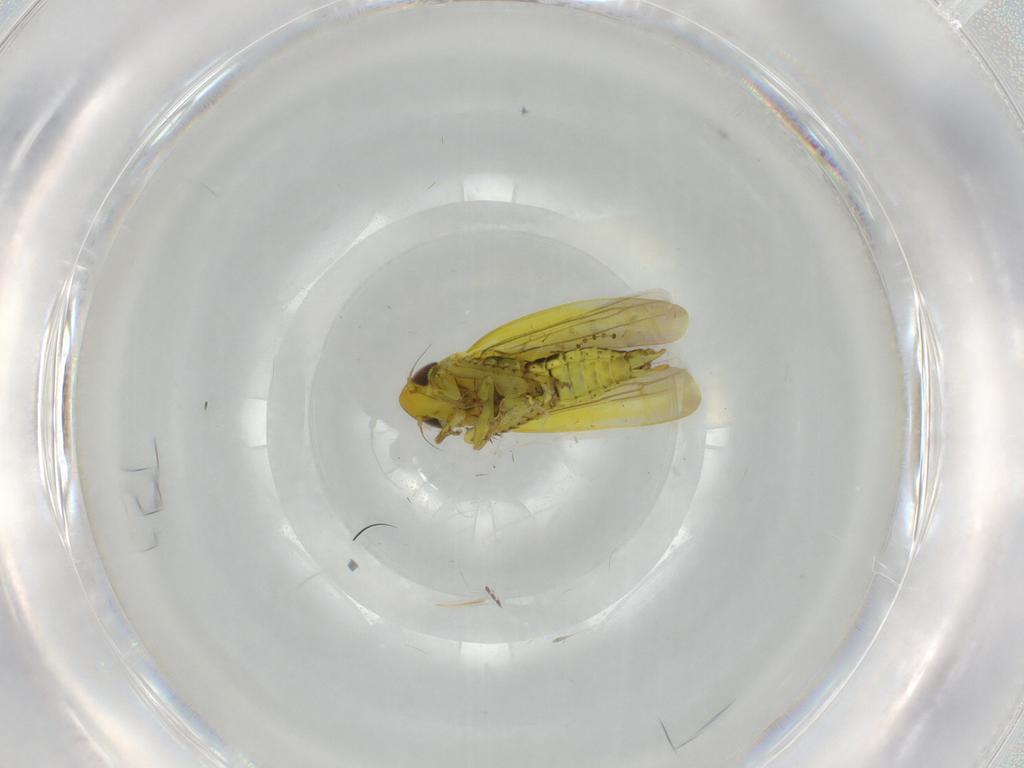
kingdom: Animalia
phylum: Arthropoda
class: Insecta
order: Hemiptera
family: Cicadellidae
